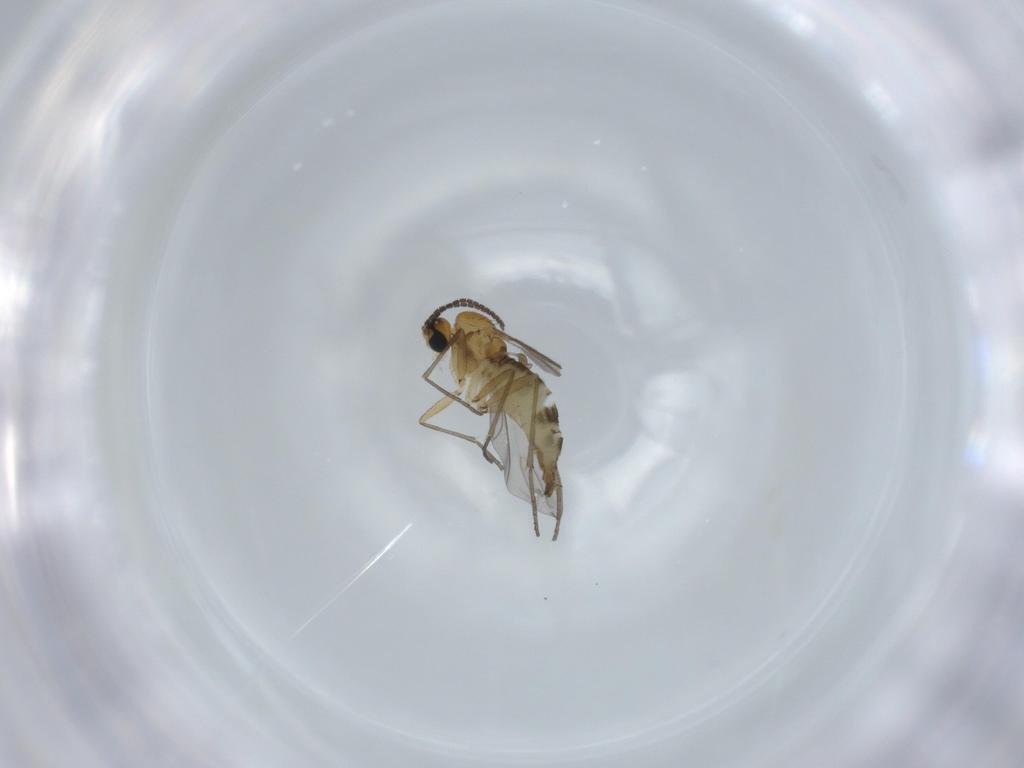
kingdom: Animalia
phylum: Arthropoda
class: Insecta
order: Diptera
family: Sciaridae
